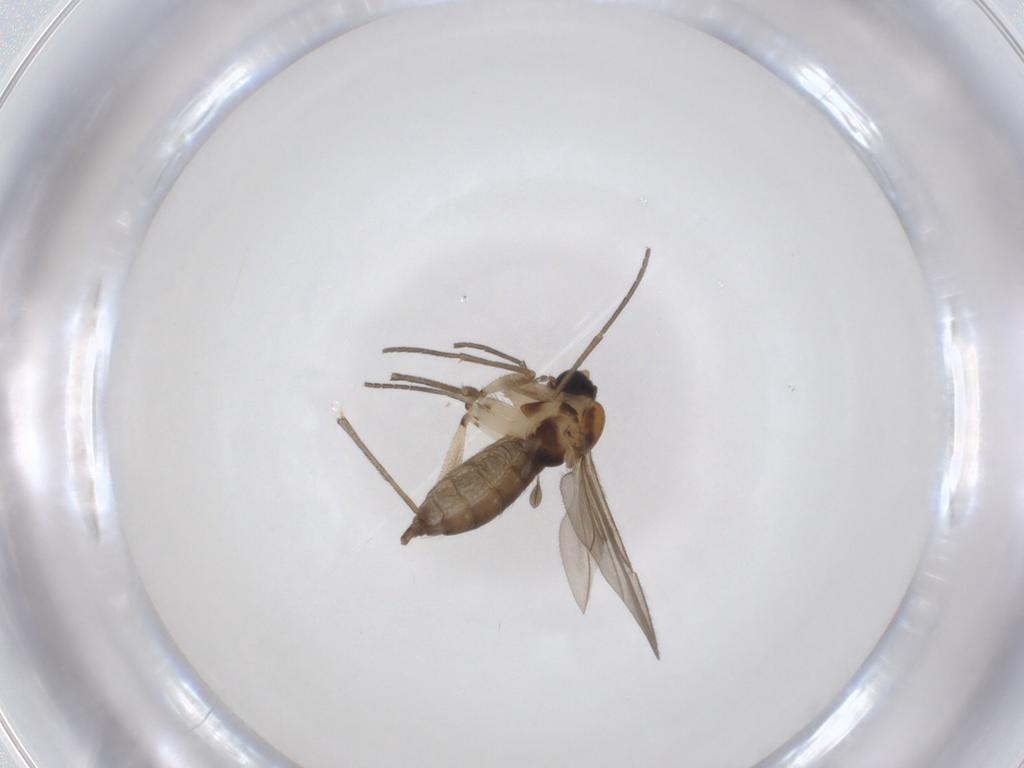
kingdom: Animalia
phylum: Arthropoda
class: Insecta
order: Diptera
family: Sciaridae
